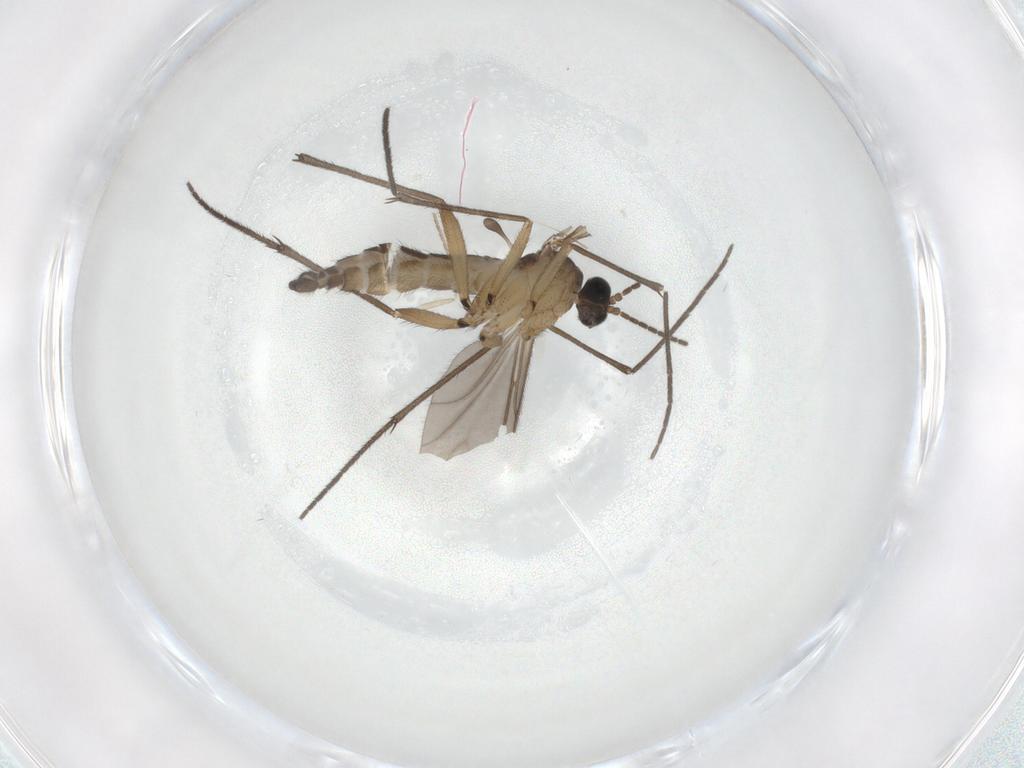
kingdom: Animalia
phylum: Arthropoda
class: Insecta
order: Diptera
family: Sciaridae
